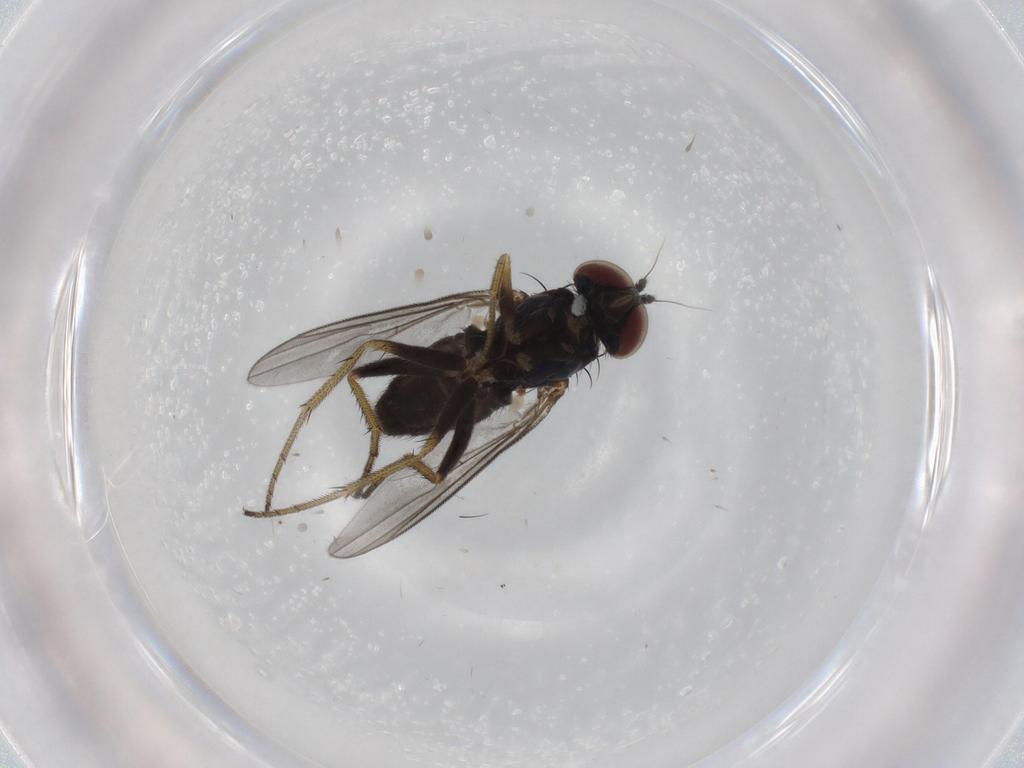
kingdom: Animalia
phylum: Arthropoda
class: Insecta
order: Diptera
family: Dolichopodidae
